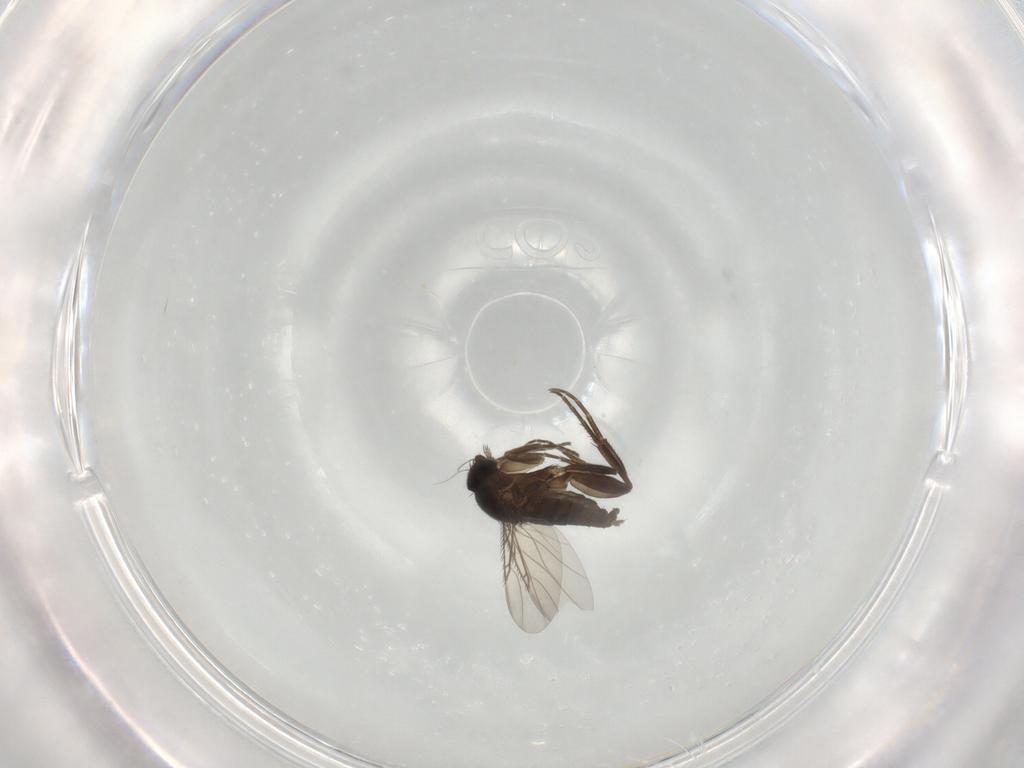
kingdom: Animalia
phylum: Arthropoda
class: Insecta
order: Diptera
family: Phoridae
